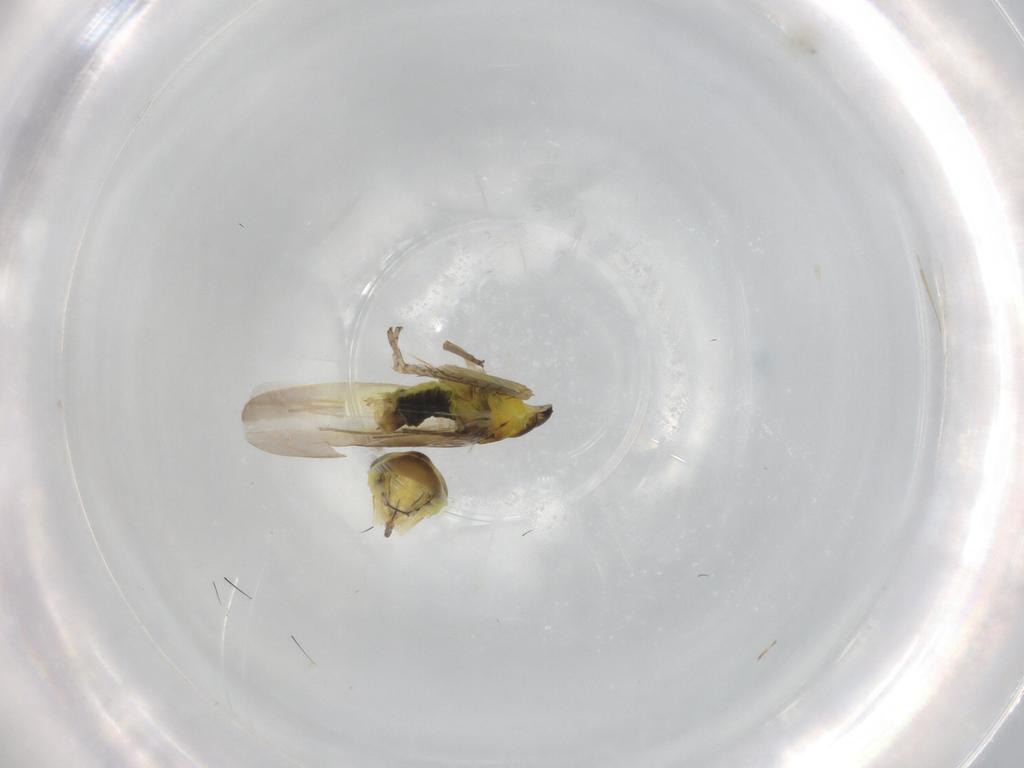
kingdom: Animalia
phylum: Arthropoda
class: Insecta
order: Hemiptera
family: Cicadellidae
